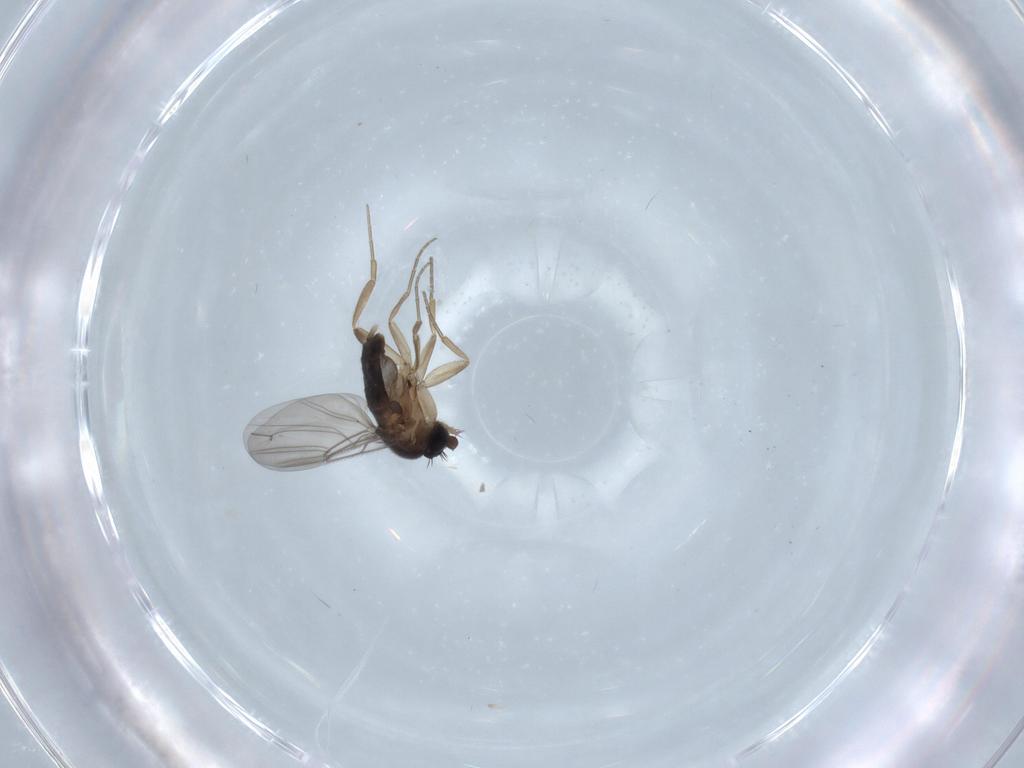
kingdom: Animalia
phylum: Arthropoda
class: Insecta
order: Diptera
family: Phoridae
